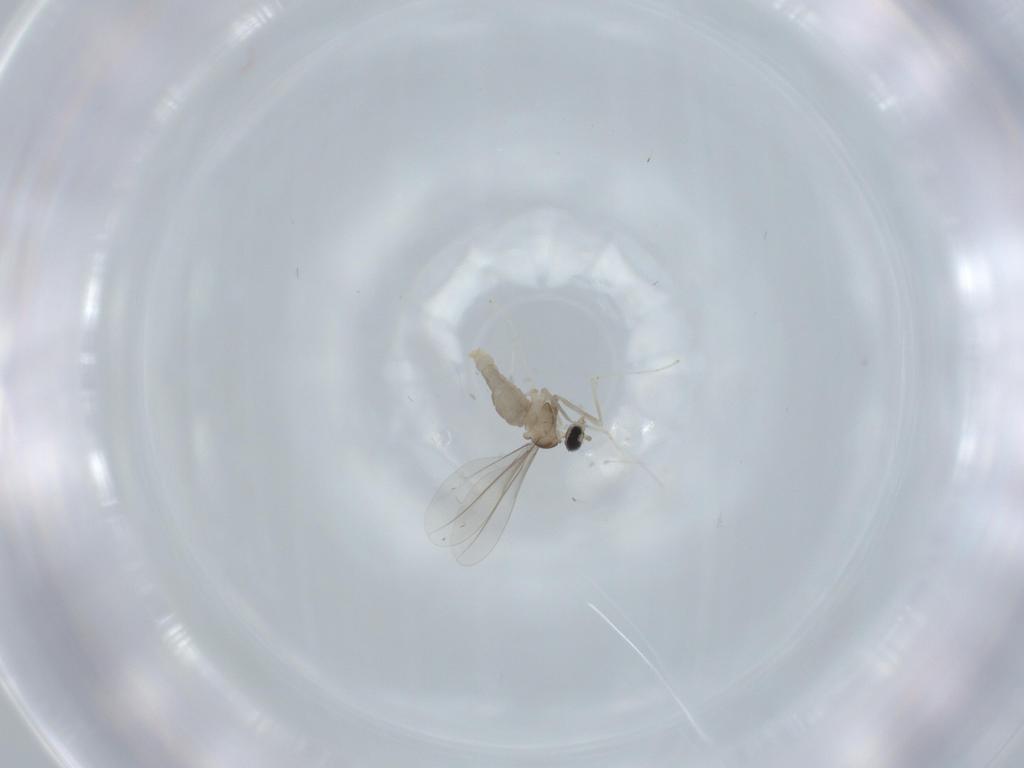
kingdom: Animalia
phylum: Arthropoda
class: Insecta
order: Diptera
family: Cecidomyiidae
